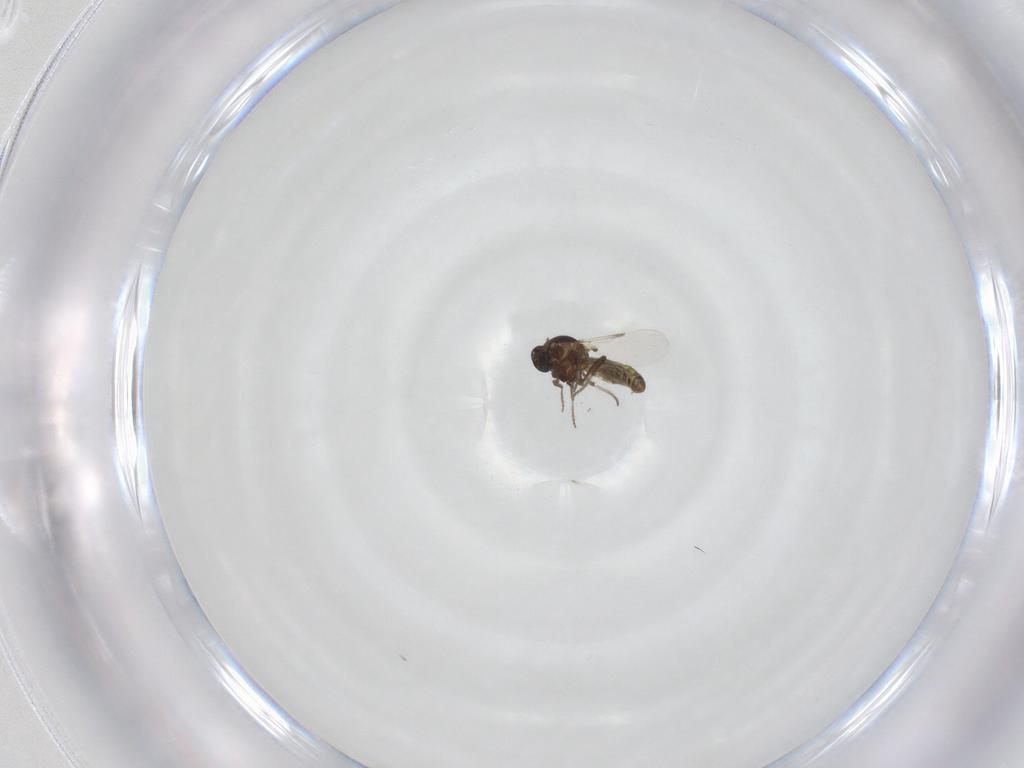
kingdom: Animalia
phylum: Arthropoda
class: Insecta
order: Diptera
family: Ceratopogonidae
